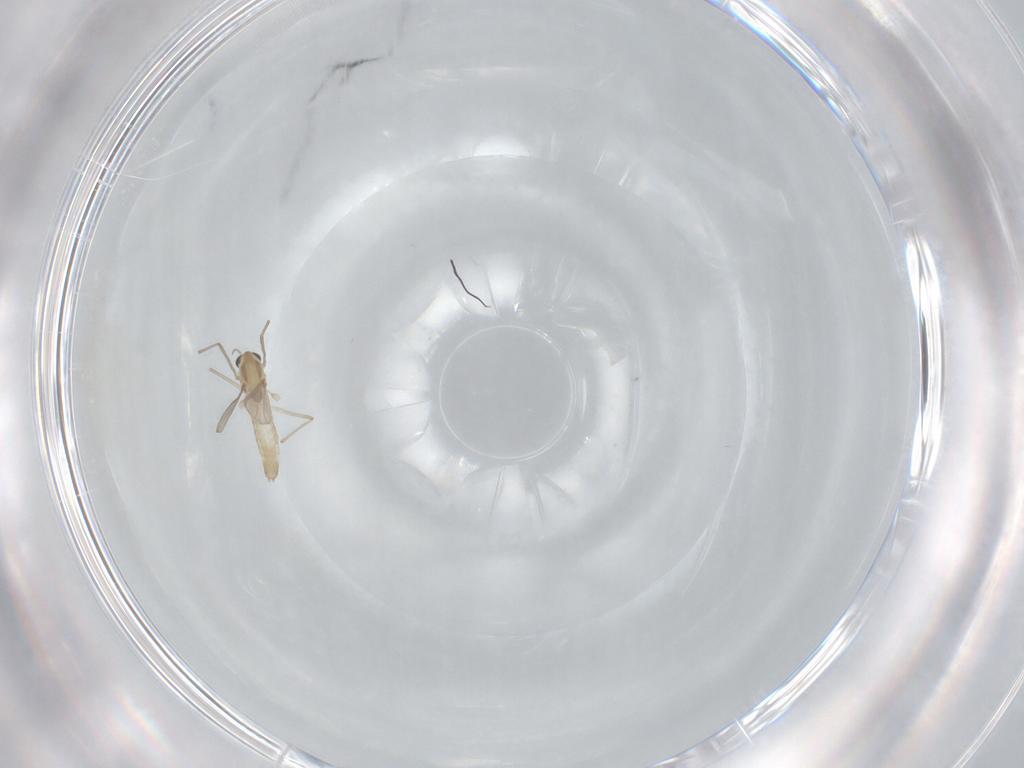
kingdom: Animalia
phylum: Arthropoda
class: Insecta
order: Diptera
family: Chironomidae
